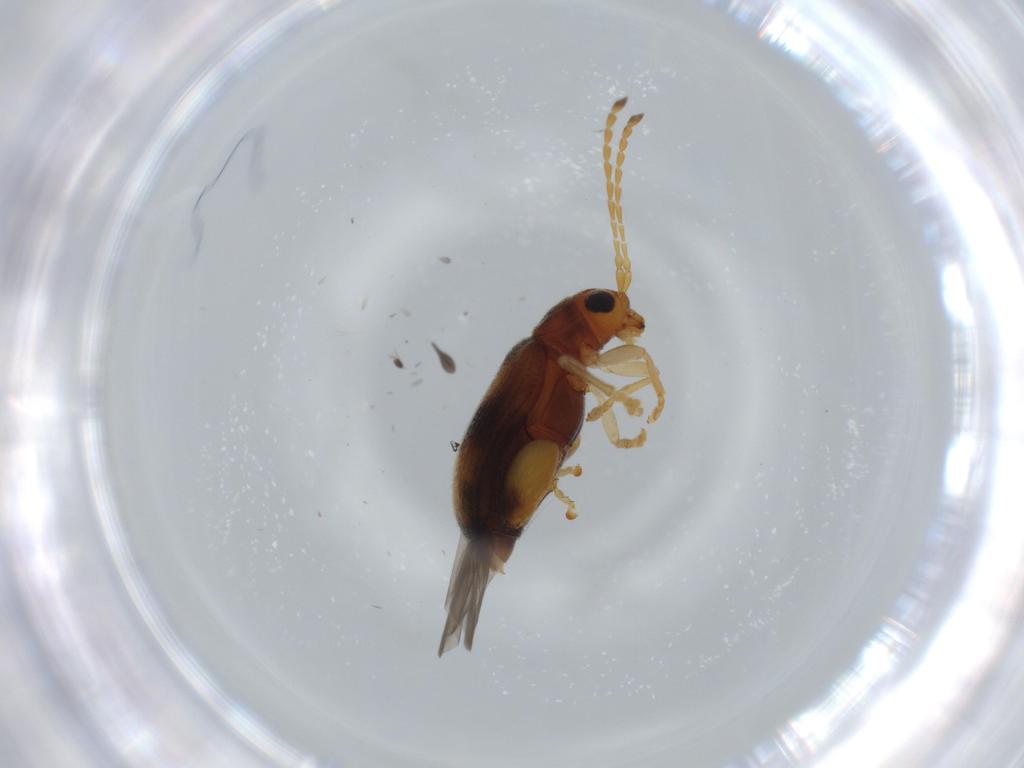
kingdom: Animalia
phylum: Arthropoda
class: Insecta
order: Coleoptera
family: Chrysomelidae
